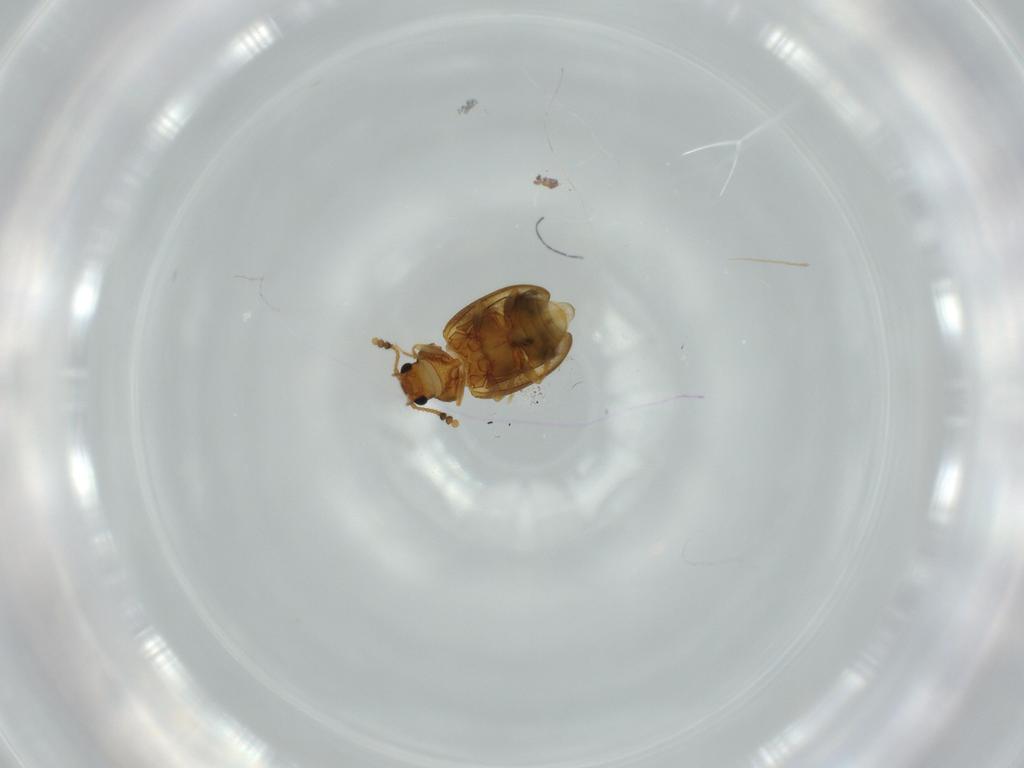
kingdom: Animalia
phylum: Arthropoda
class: Insecta
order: Coleoptera
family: Erotylidae
